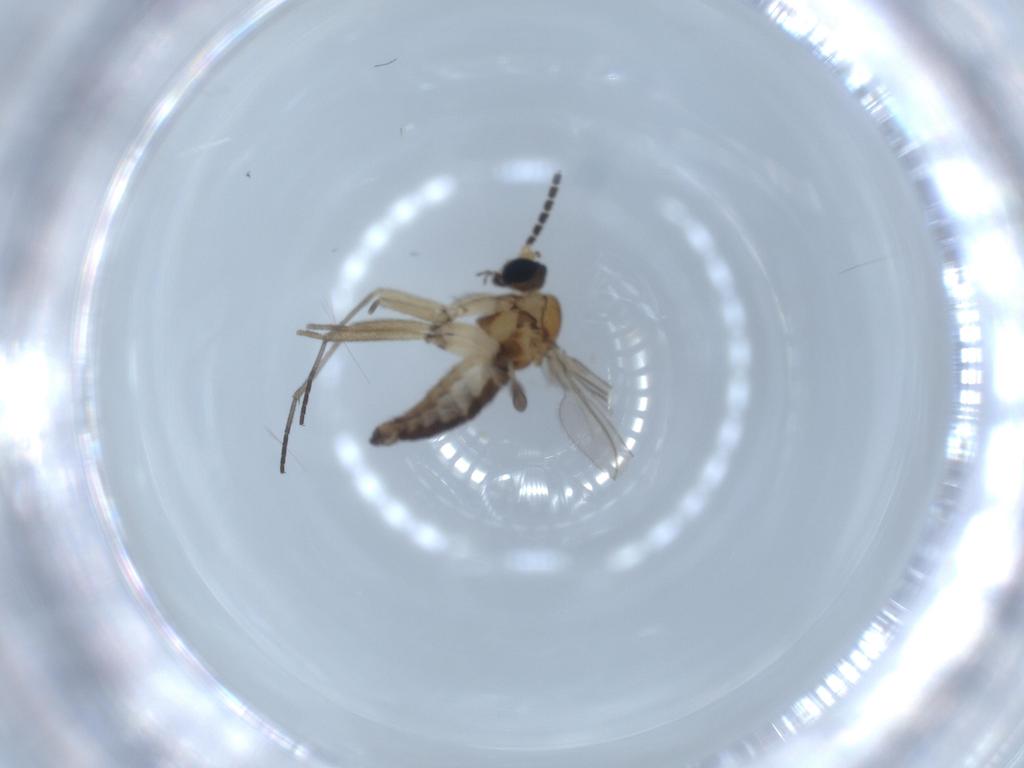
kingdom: Animalia
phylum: Arthropoda
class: Insecta
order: Diptera
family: Sciaridae
